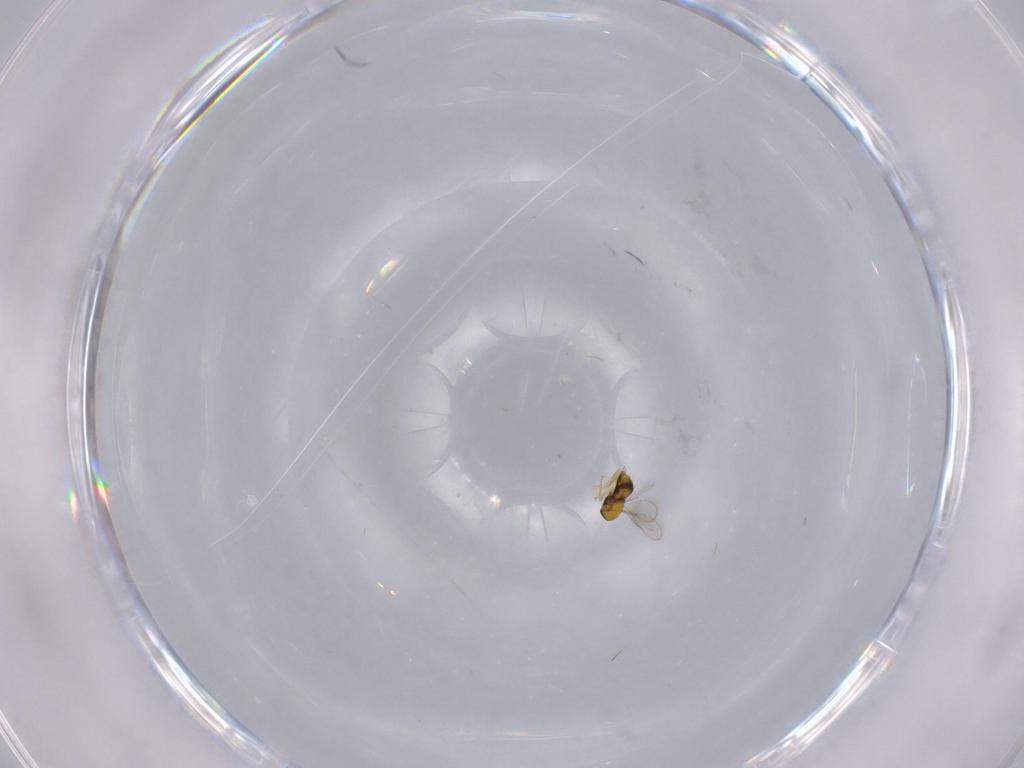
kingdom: Animalia
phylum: Arthropoda
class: Insecta
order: Hymenoptera
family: Aphelinidae
